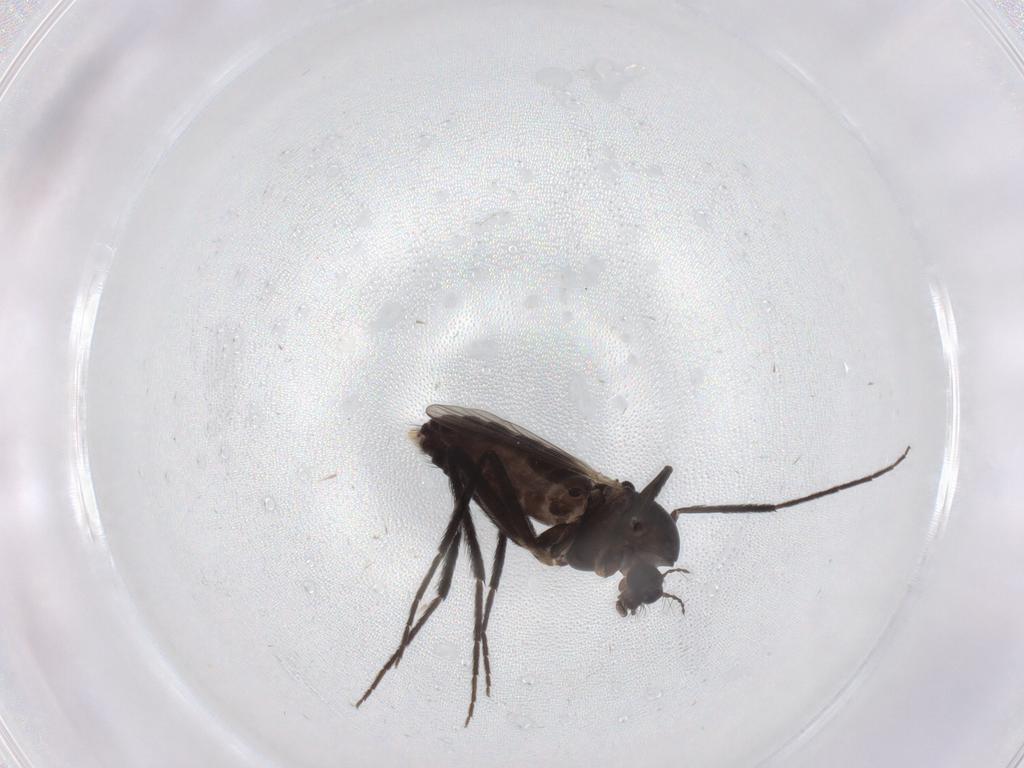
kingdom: Animalia
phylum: Arthropoda
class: Insecta
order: Diptera
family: Chironomidae
